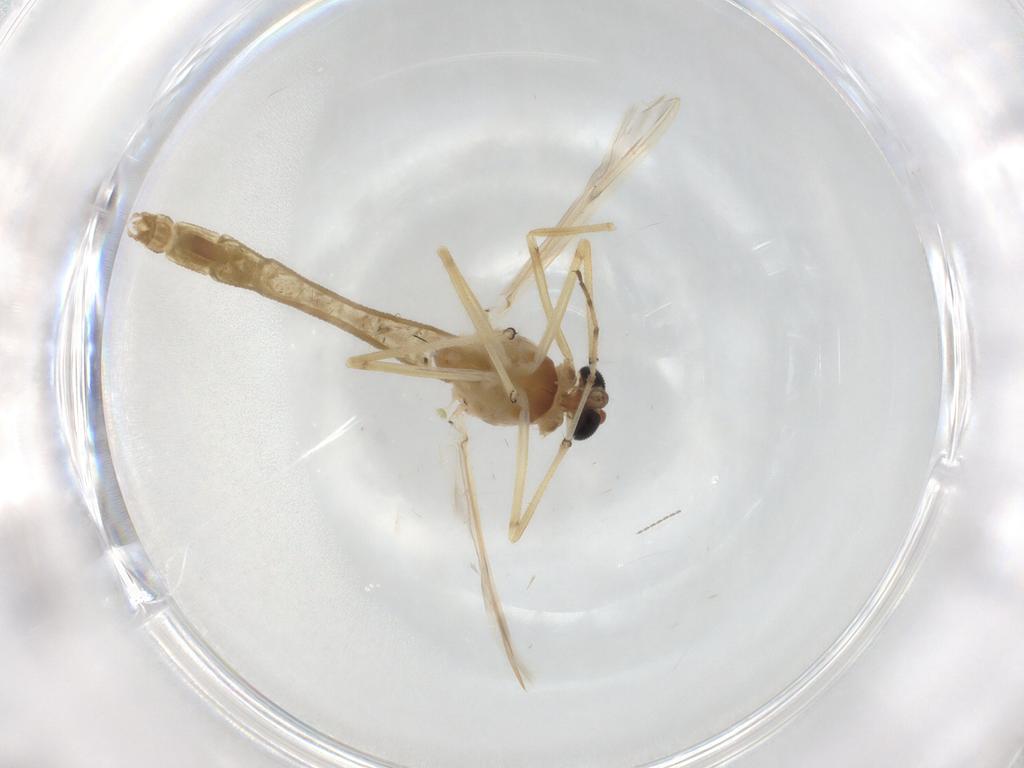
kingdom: Animalia
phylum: Arthropoda
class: Insecta
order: Diptera
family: Chironomidae
